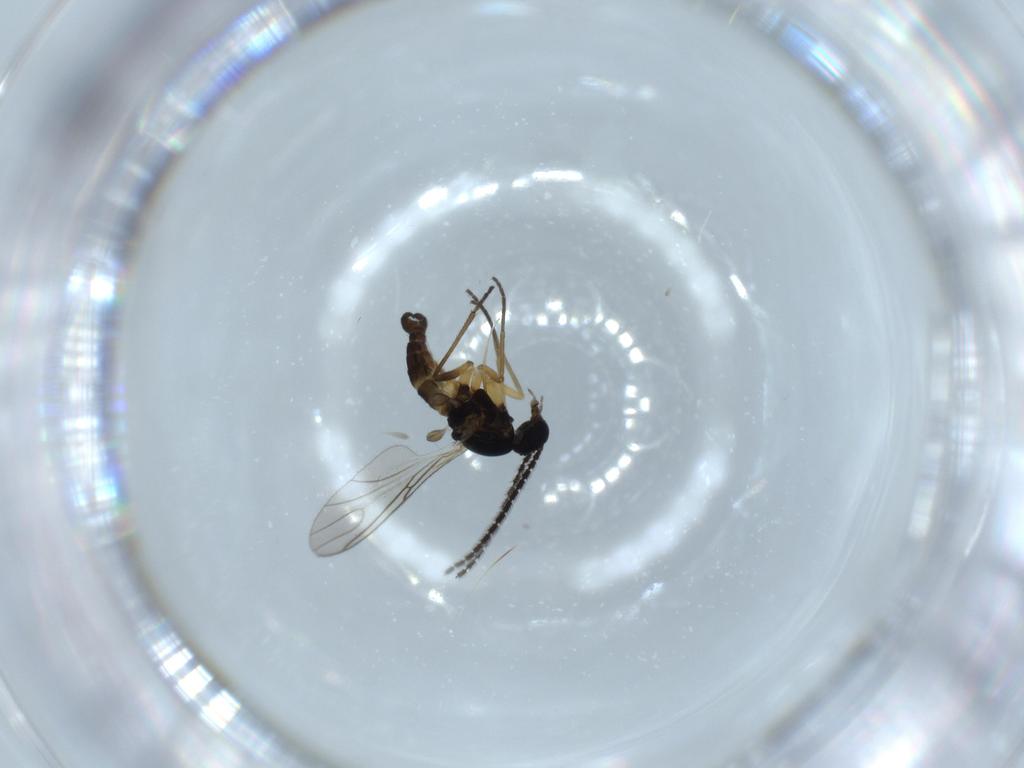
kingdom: Animalia
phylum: Arthropoda
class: Insecta
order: Diptera
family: Sciaridae
